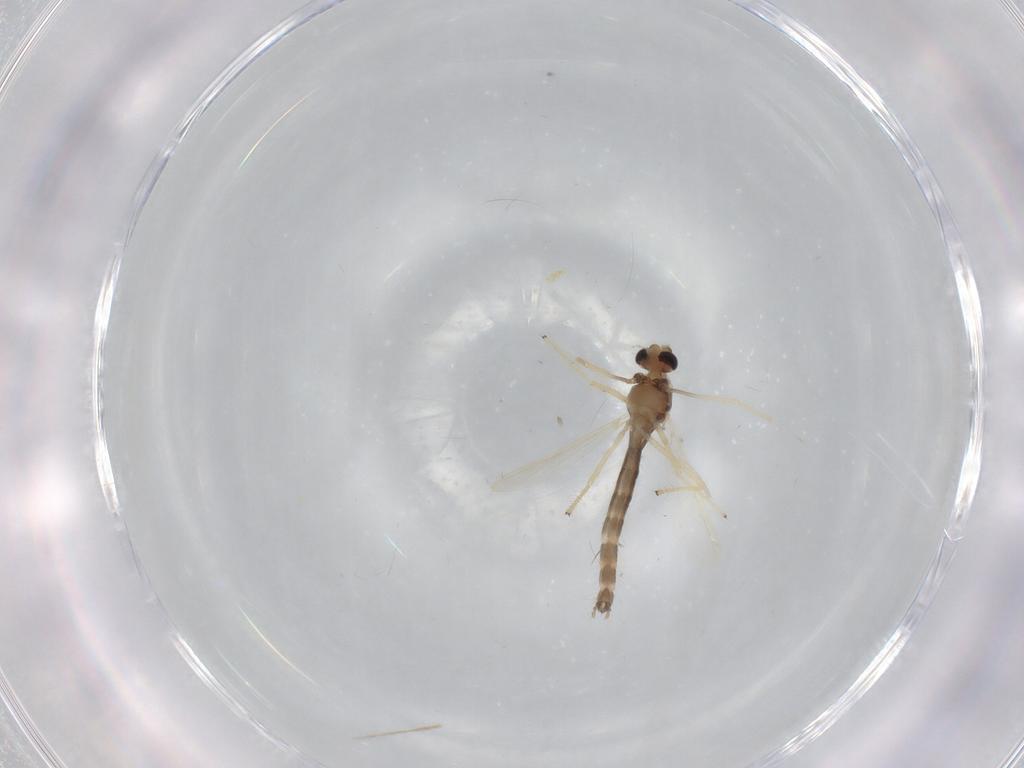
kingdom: Animalia
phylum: Arthropoda
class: Insecta
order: Diptera
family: Chironomidae
